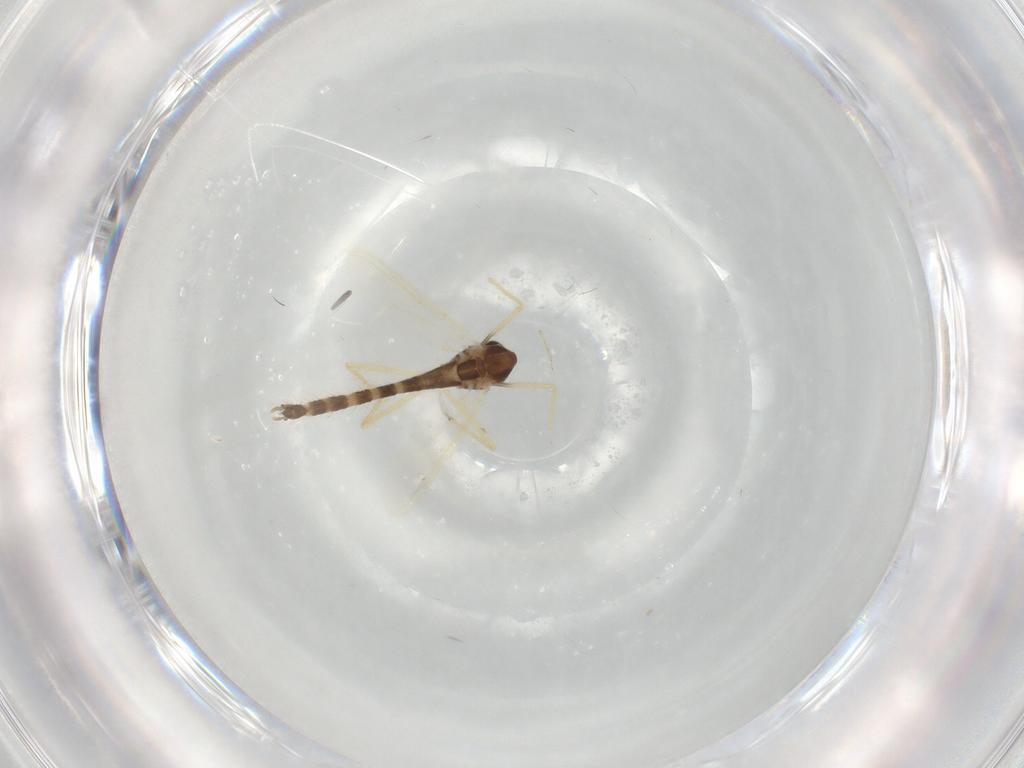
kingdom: Animalia
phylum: Arthropoda
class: Insecta
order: Diptera
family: Chironomidae
